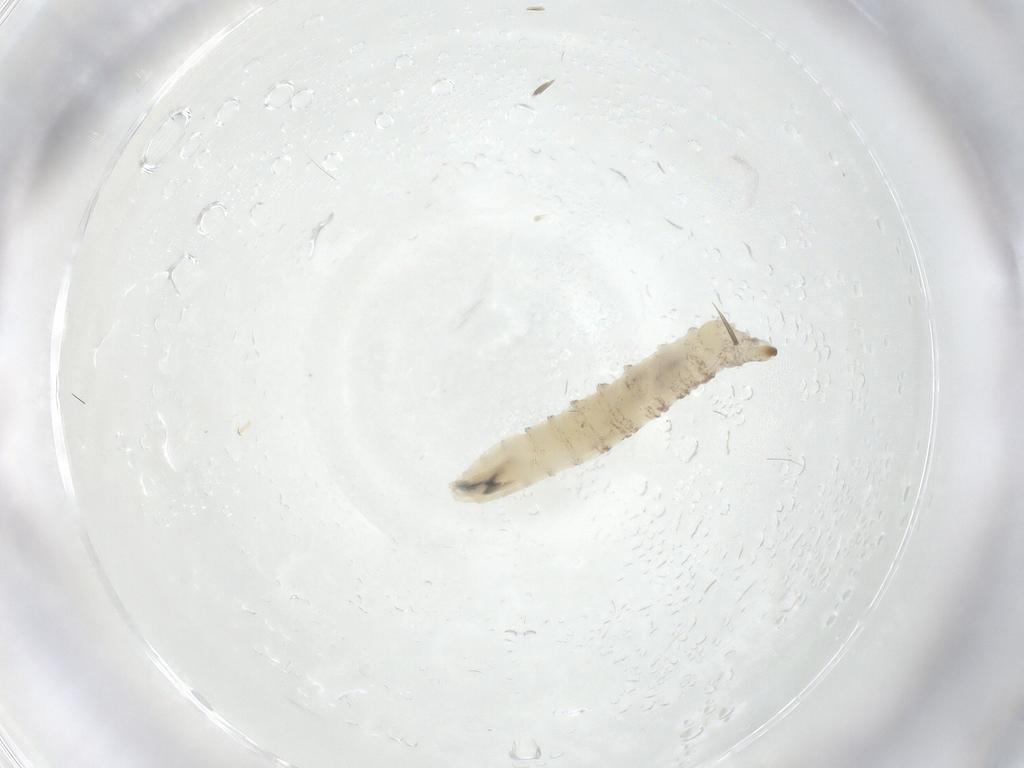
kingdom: Animalia
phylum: Arthropoda
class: Insecta
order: Diptera
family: Drosophilidae
